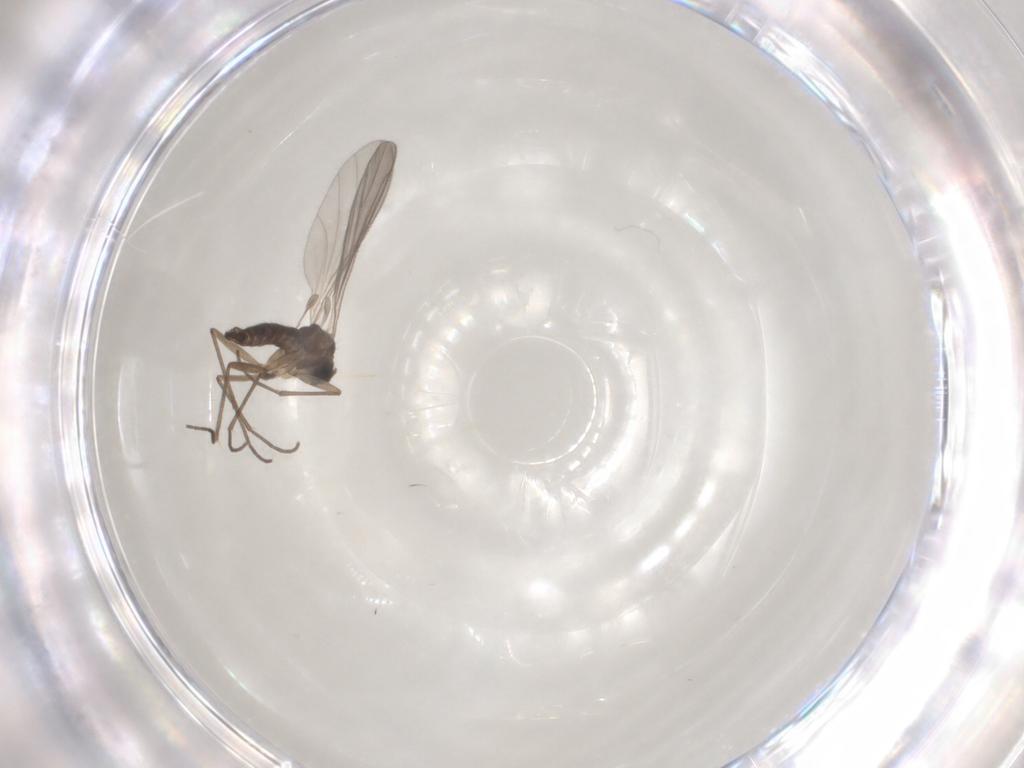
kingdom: Animalia
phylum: Arthropoda
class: Insecta
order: Diptera
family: Sciaridae
